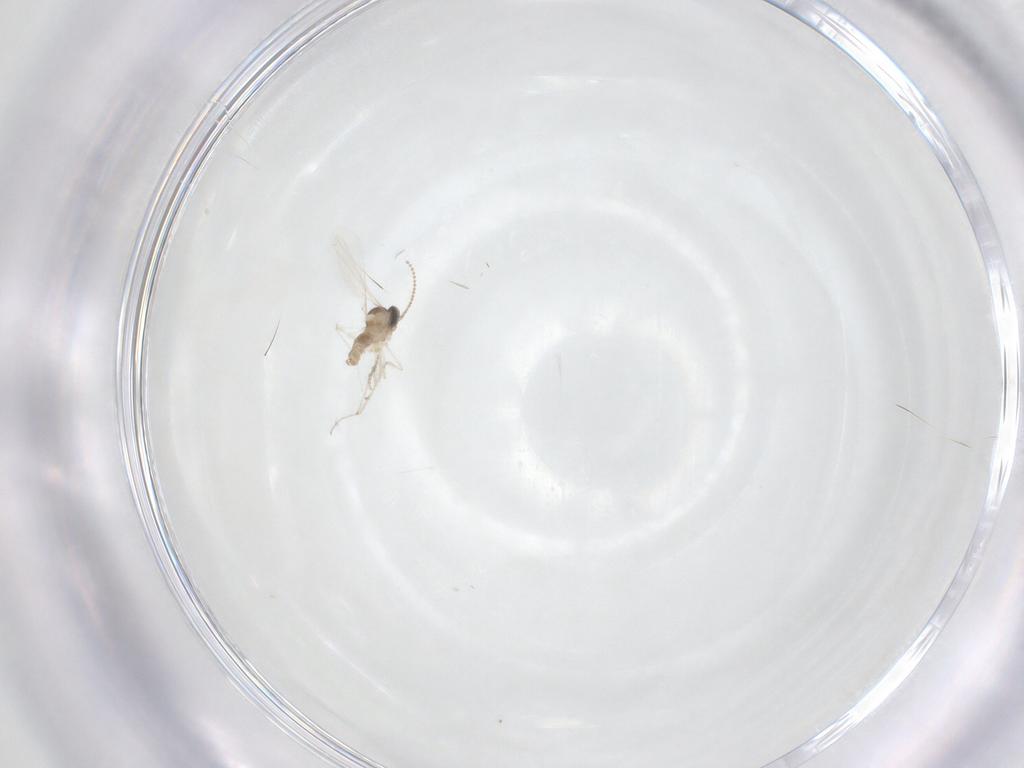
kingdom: Animalia
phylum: Arthropoda
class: Insecta
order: Diptera
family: Cecidomyiidae
